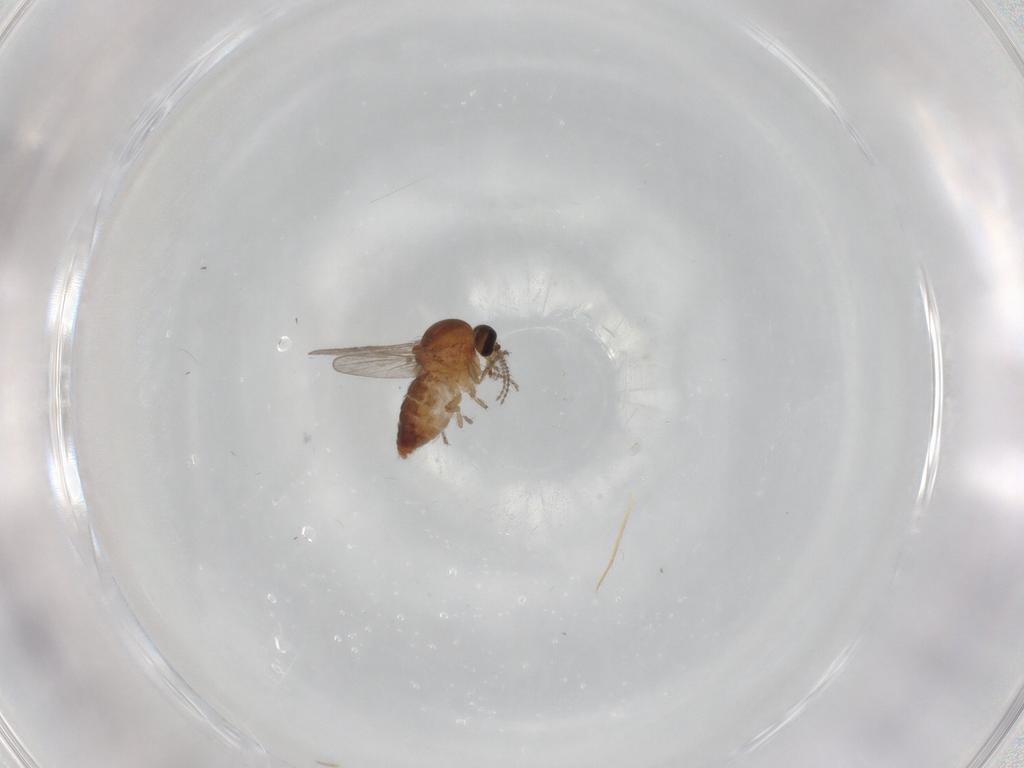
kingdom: Animalia
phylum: Arthropoda
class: Insecta
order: Diptera
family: Ceratopogonidae
